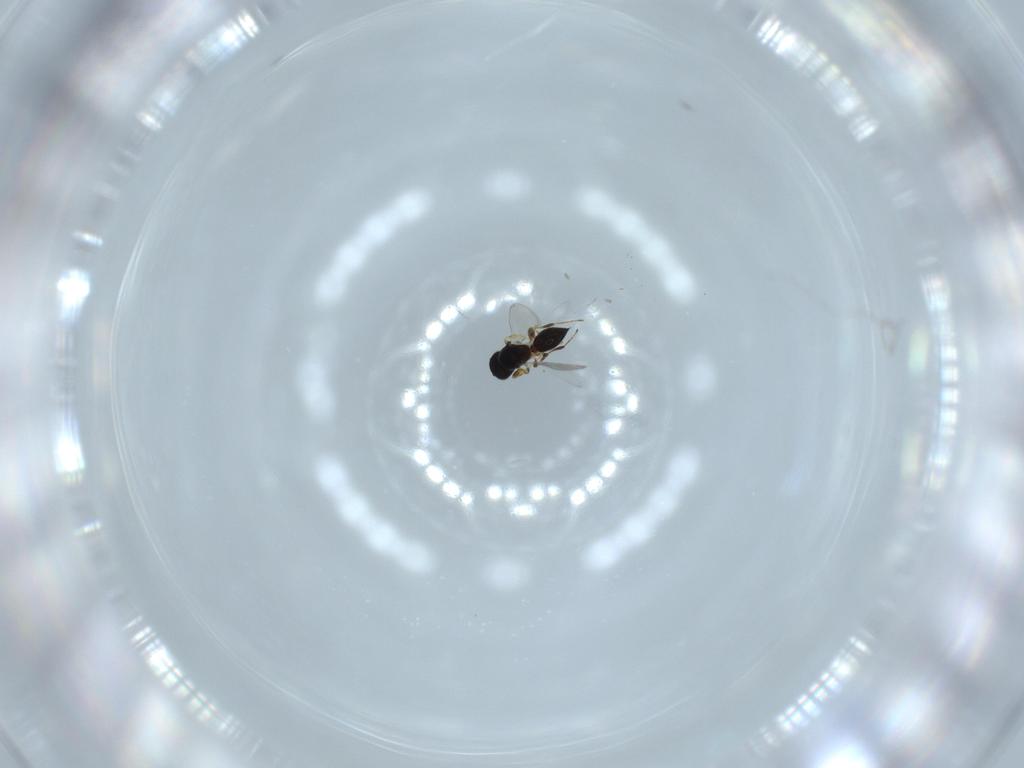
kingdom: Animalia
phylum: Arthropoda
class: Insecta
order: Hymenoptera
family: Platygastridae
